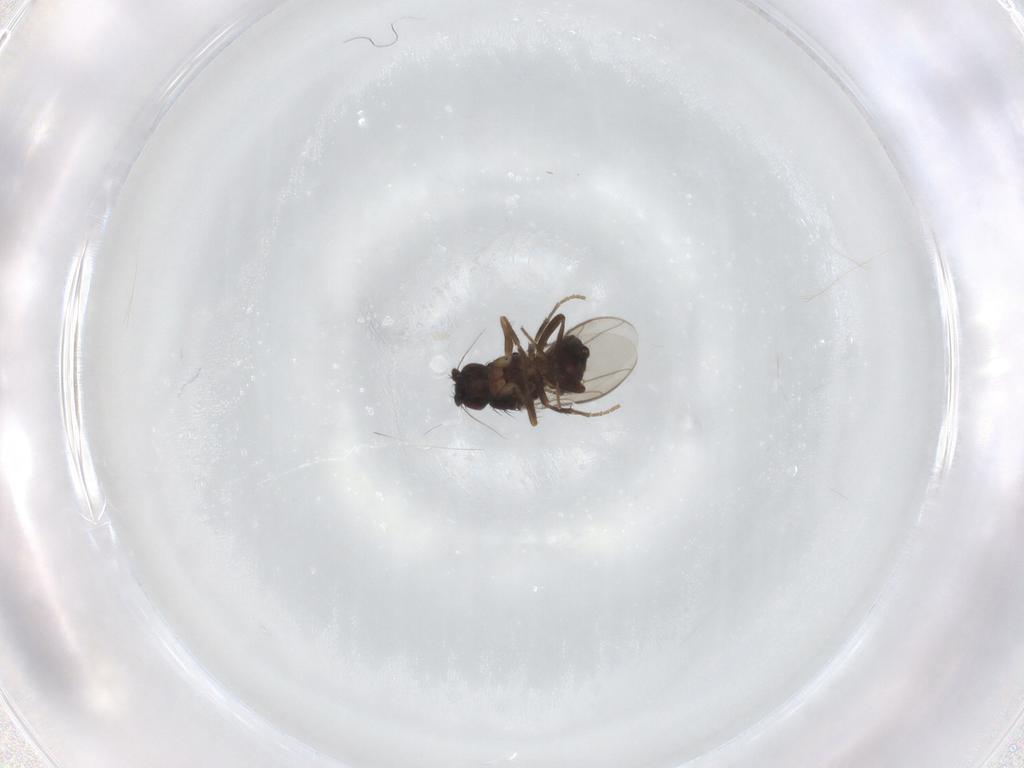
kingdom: Animalia
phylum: Arthropoda
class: Insecta
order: Diptera
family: Sphaeroceridae
